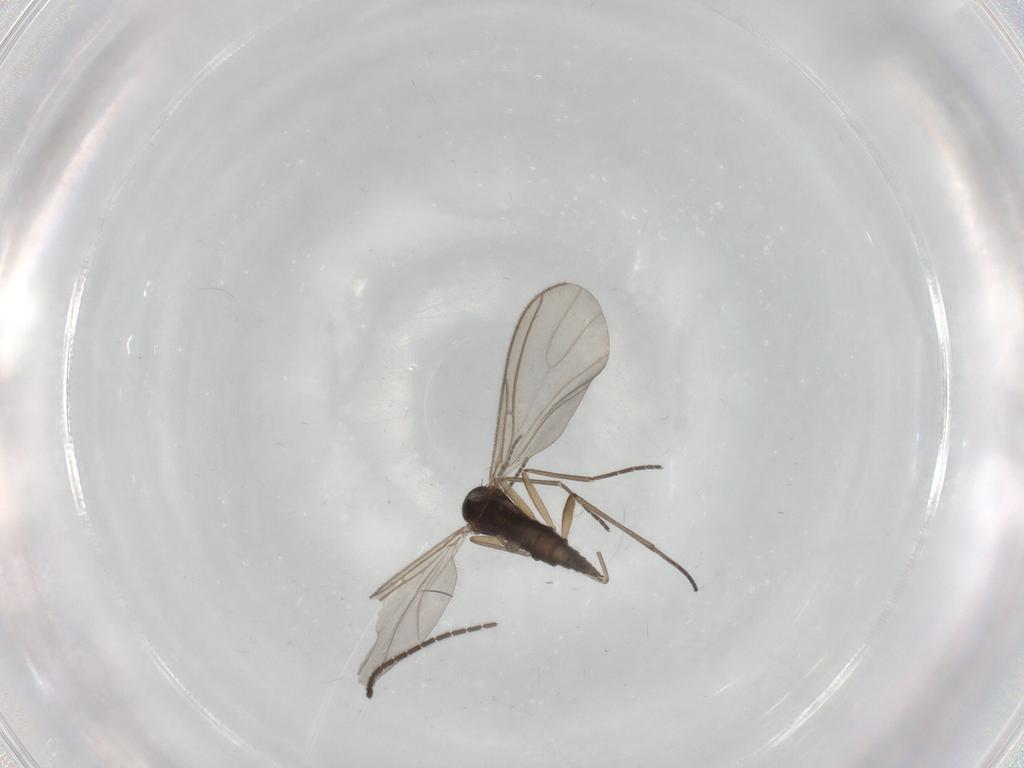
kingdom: Animalia
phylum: Arthropoda
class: Insecta
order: Diptera
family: Sciaridae
